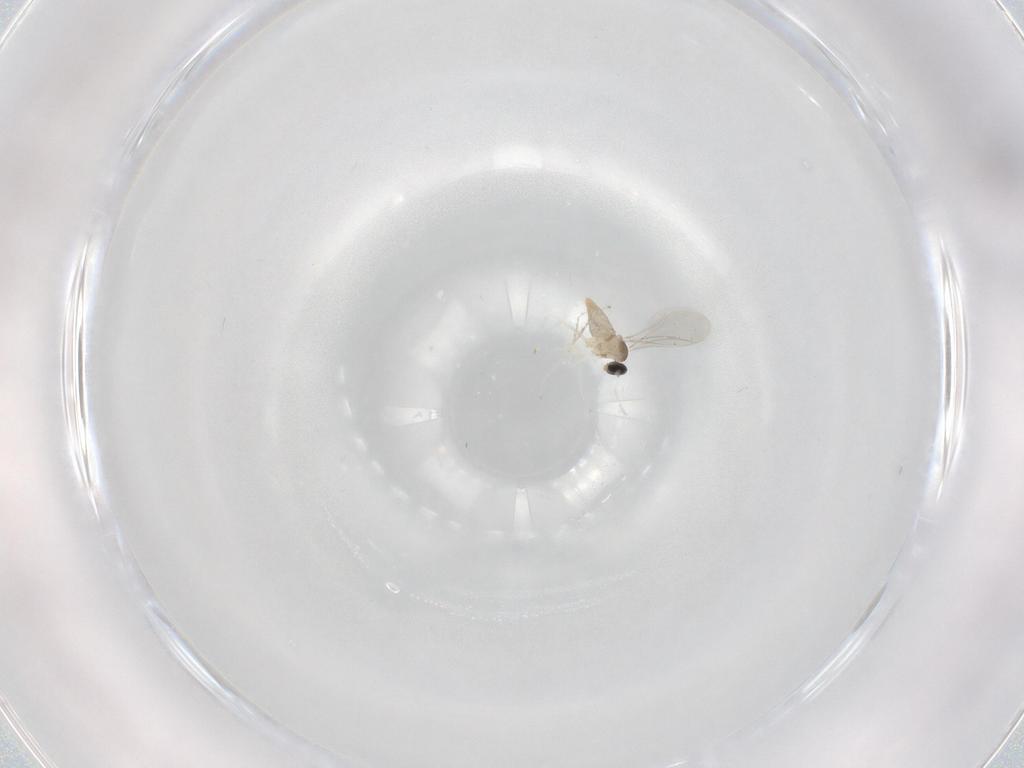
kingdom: Animalia
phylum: Arthropoda
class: Insecta
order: Diptera
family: Cecidomyiidae
